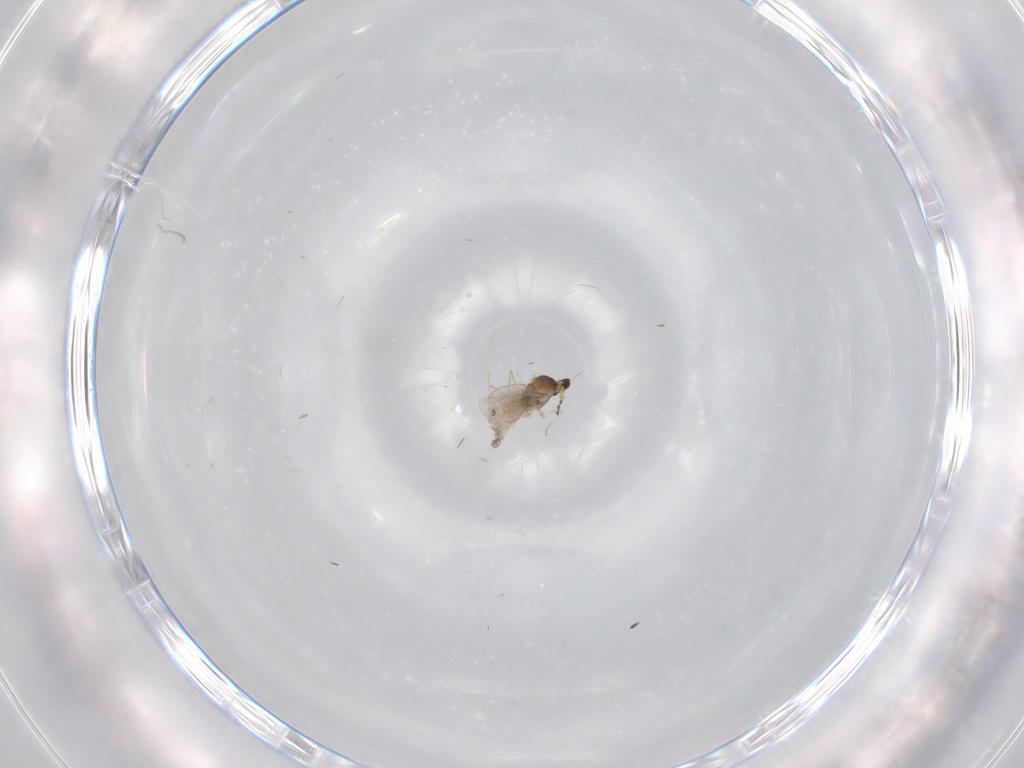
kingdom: Animalia
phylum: Arthropoda
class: Insecta
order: Diptera
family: Cecidomyiidae
